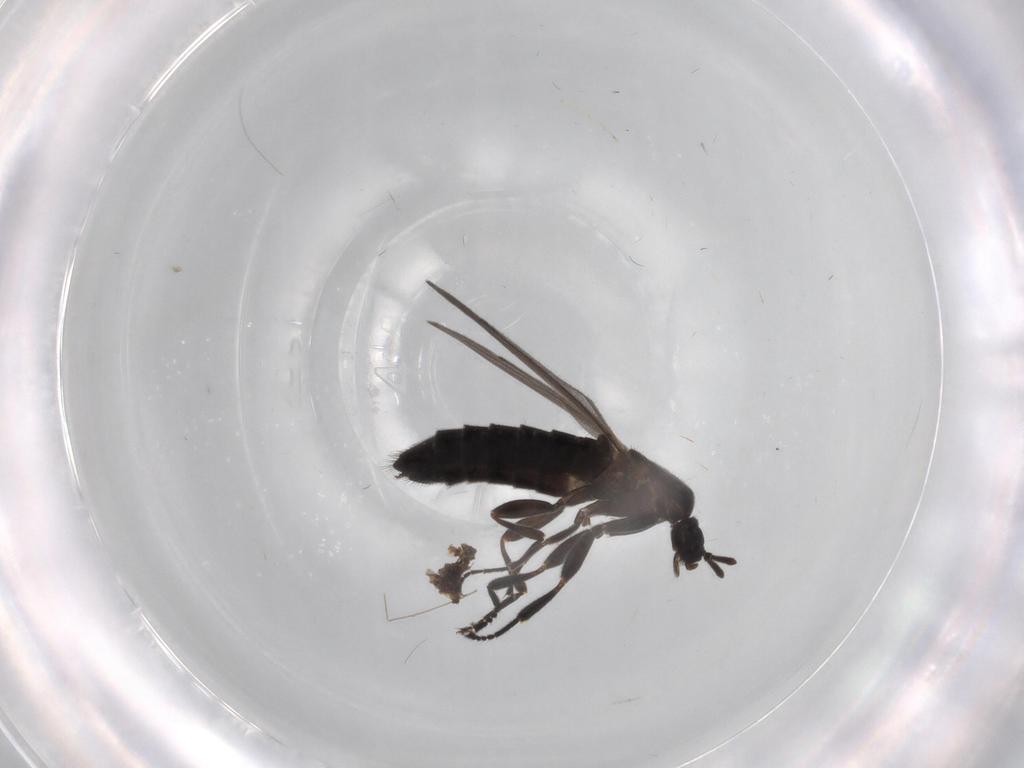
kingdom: Animalia
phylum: Arthropoda
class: Insecta
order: Diptera
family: Scatopsidae
